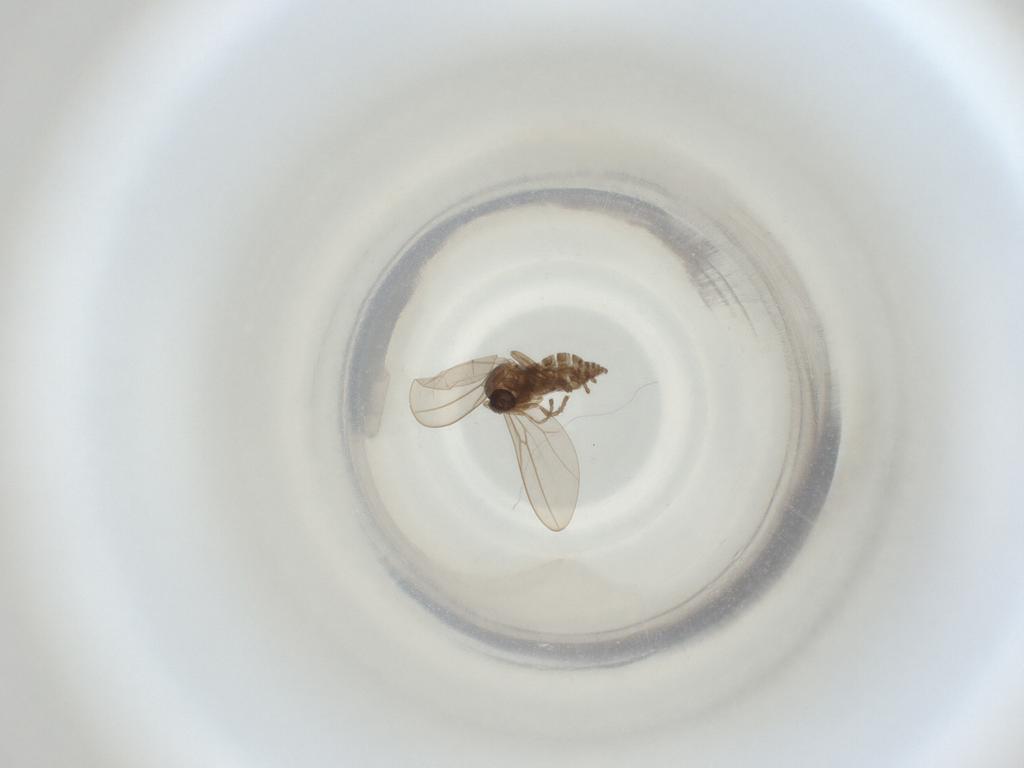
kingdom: Animalia
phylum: Arthropoda
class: Insecta
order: Diptera
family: Cecidomyiidae
